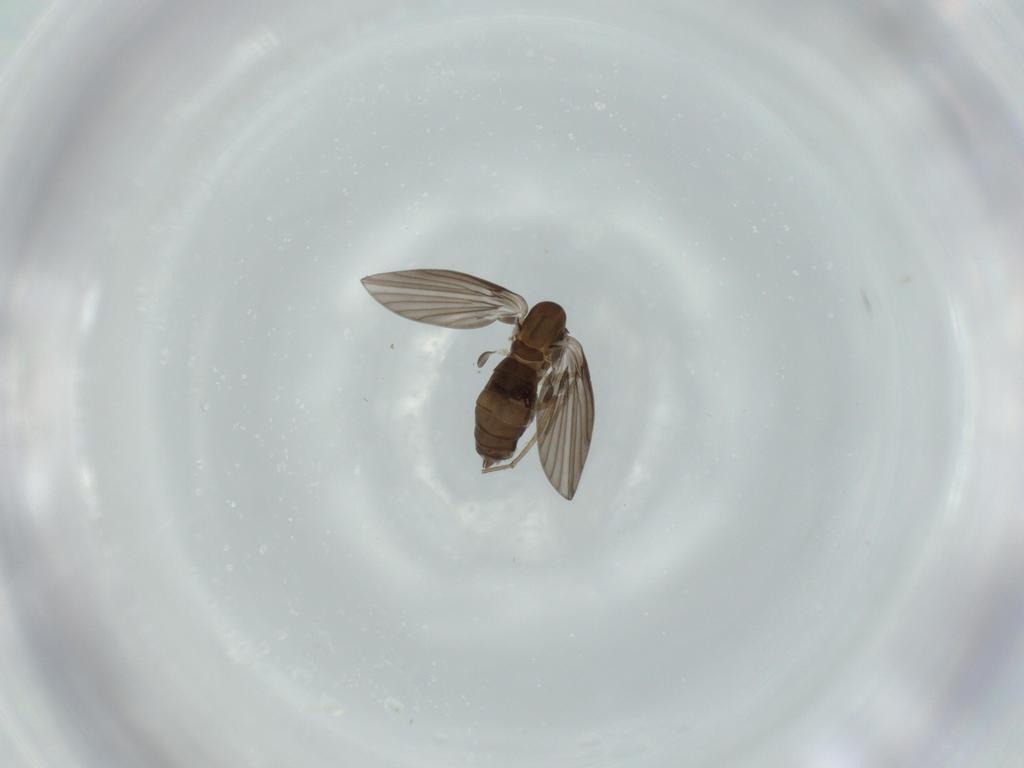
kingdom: Animalia
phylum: Arthropoda
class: Insecta
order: Diptera
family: Psychodidae
